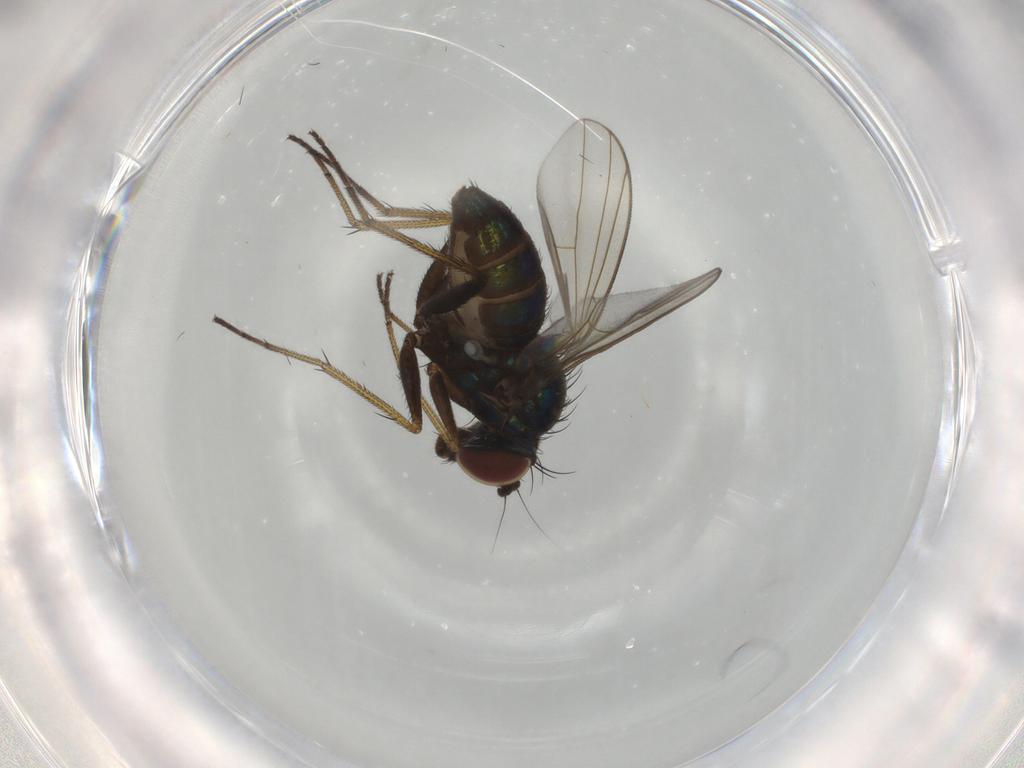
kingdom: Animalia
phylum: Arthropoda
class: Insecta
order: Diptera
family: Dolichopodidae
